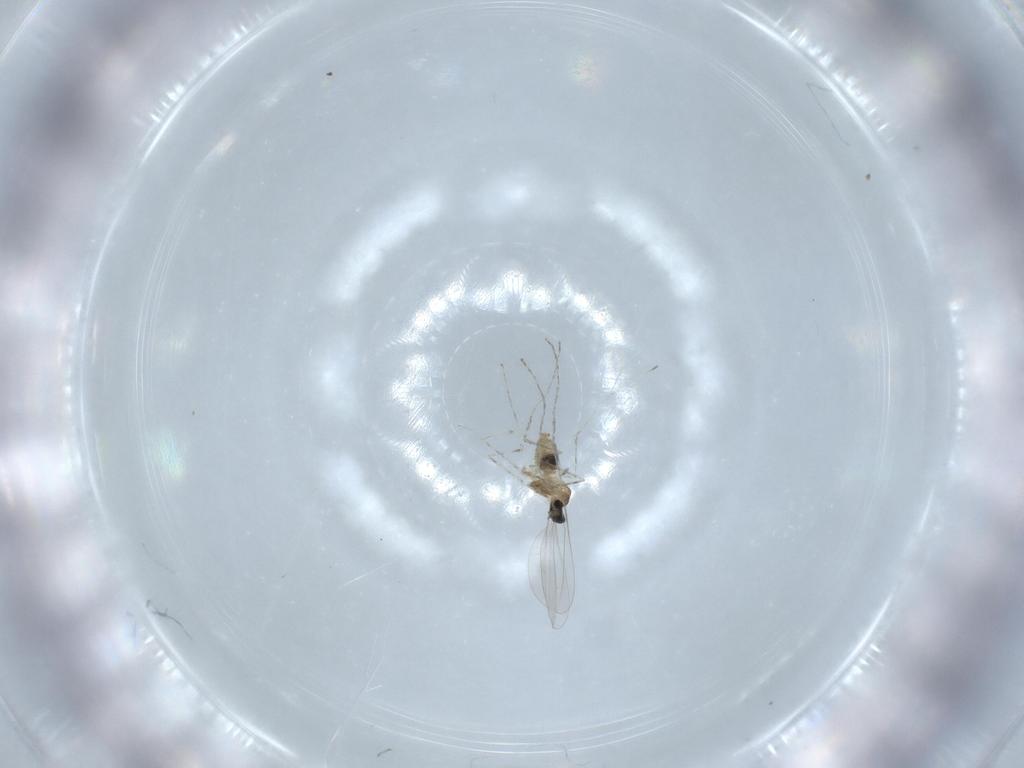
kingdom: Animalia
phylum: Arthropoda
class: Insecta
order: Diptera
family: Cecidomyiidae
